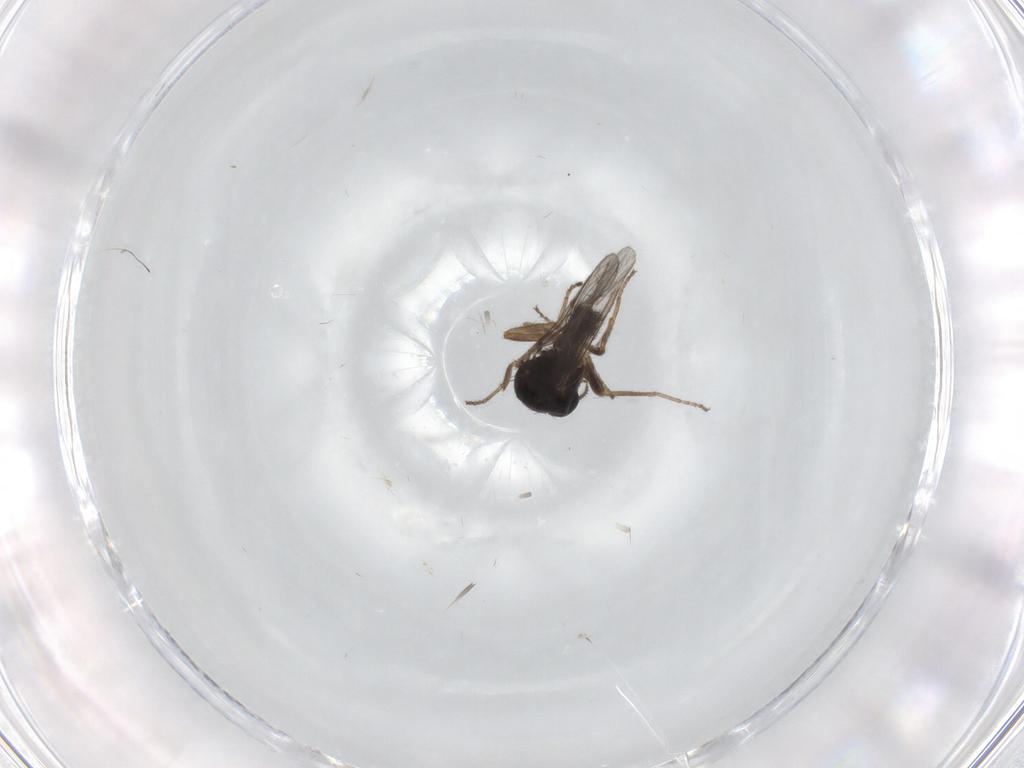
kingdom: Animalia
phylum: Arthropoda
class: Insecta
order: Diptera
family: Ceratopogonidae
